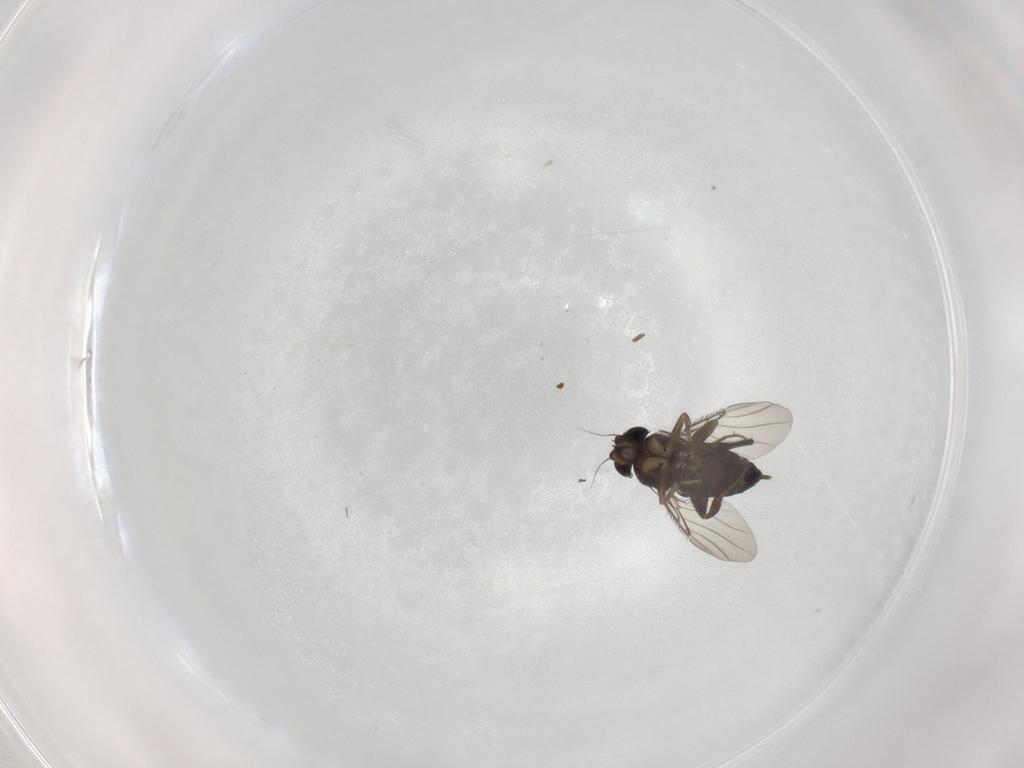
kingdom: Animalia
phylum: Arthropoda
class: Insecta
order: Diptera
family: Phoridae
